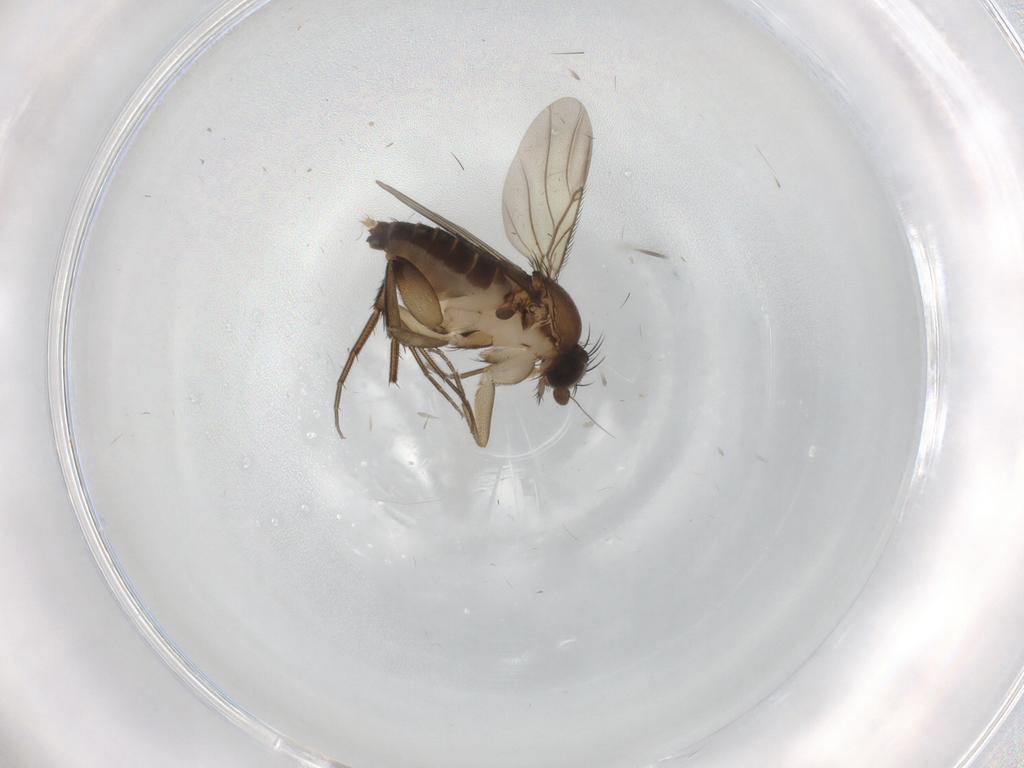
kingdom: Animalia
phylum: Arthropoda
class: Insecta
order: Diptera
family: Phoridae
